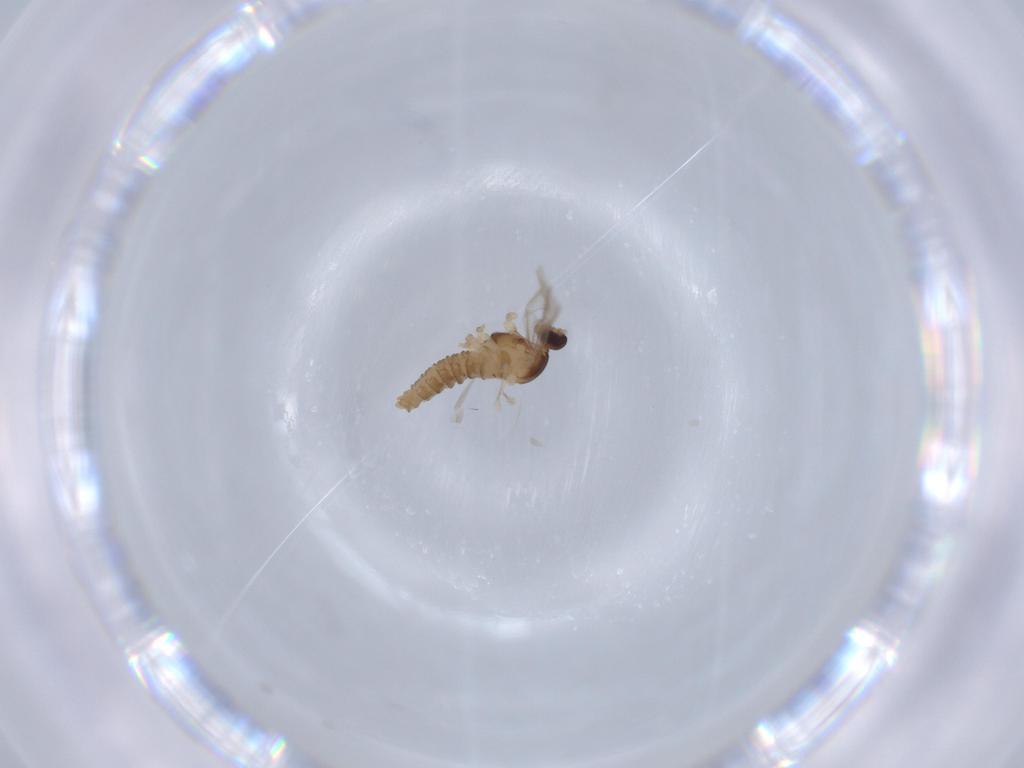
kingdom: Animalia
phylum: Arthropoda
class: Insecta
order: Diptera
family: Cecidomyiidae
